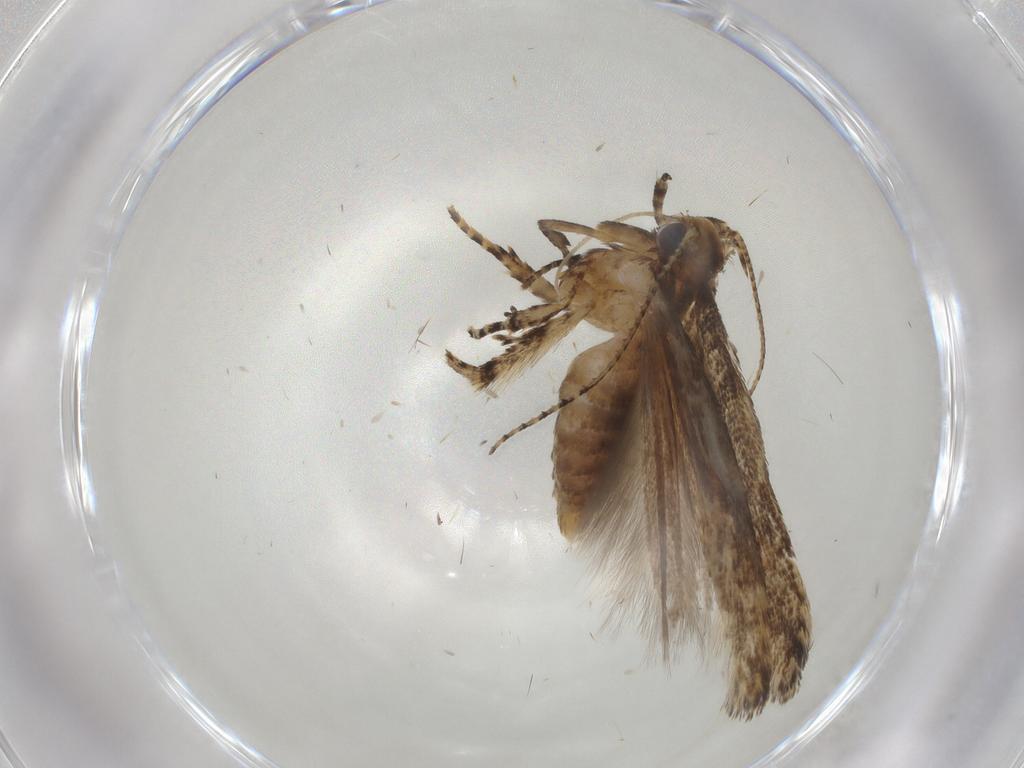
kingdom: Animalia
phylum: Arthropoda
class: Insecta
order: Lepidoptera
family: Gelechiidae
